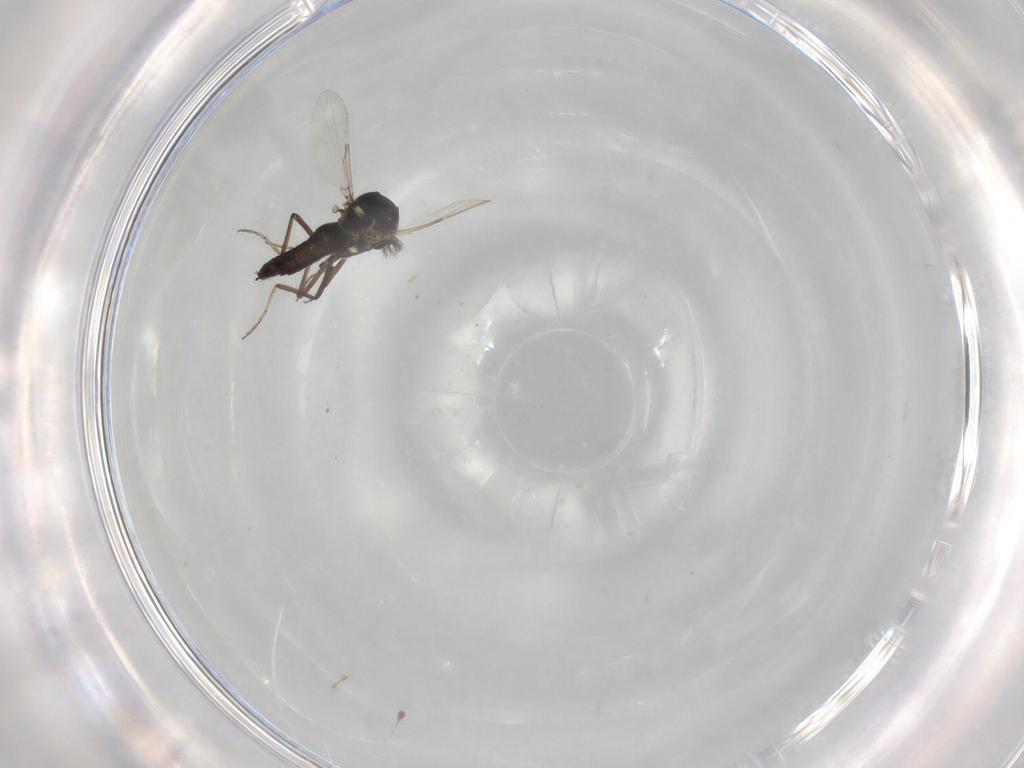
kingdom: Animalia
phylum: Arthropoda
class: Insecta
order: Diptera
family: Ceratopogonidae
